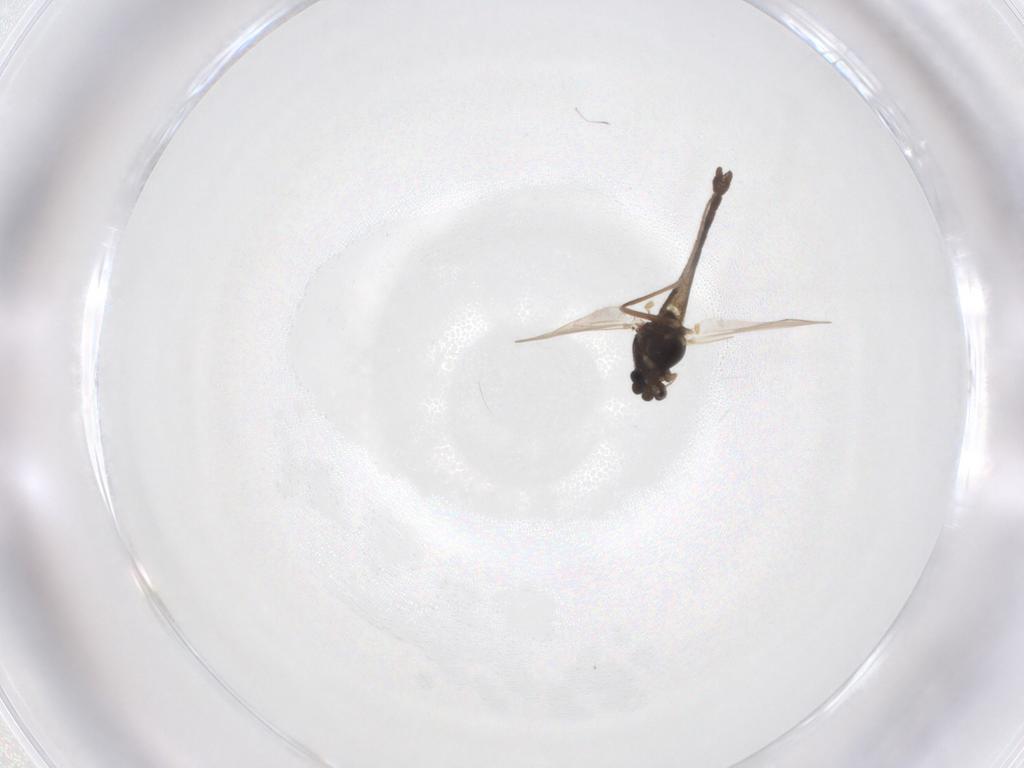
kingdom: Animalia
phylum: Arthropoda
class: Insecta
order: Diptera
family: Chironomidae
